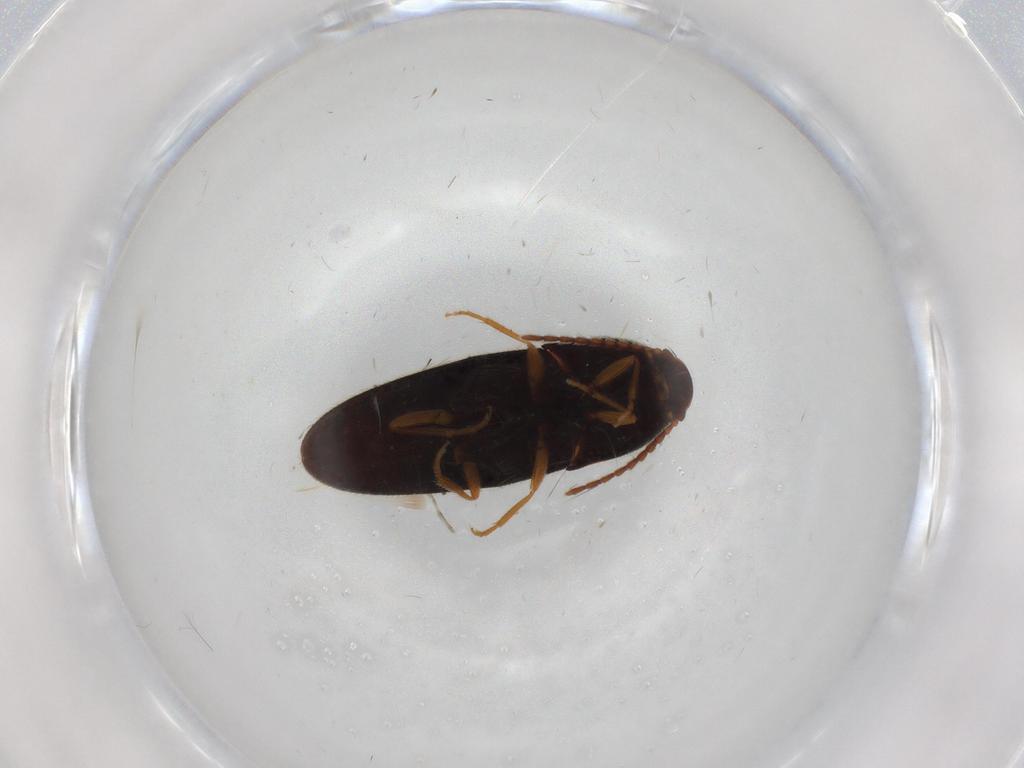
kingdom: Animalia
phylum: Arthropoda
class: Insecta
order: Coleoptera
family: Elateridae
